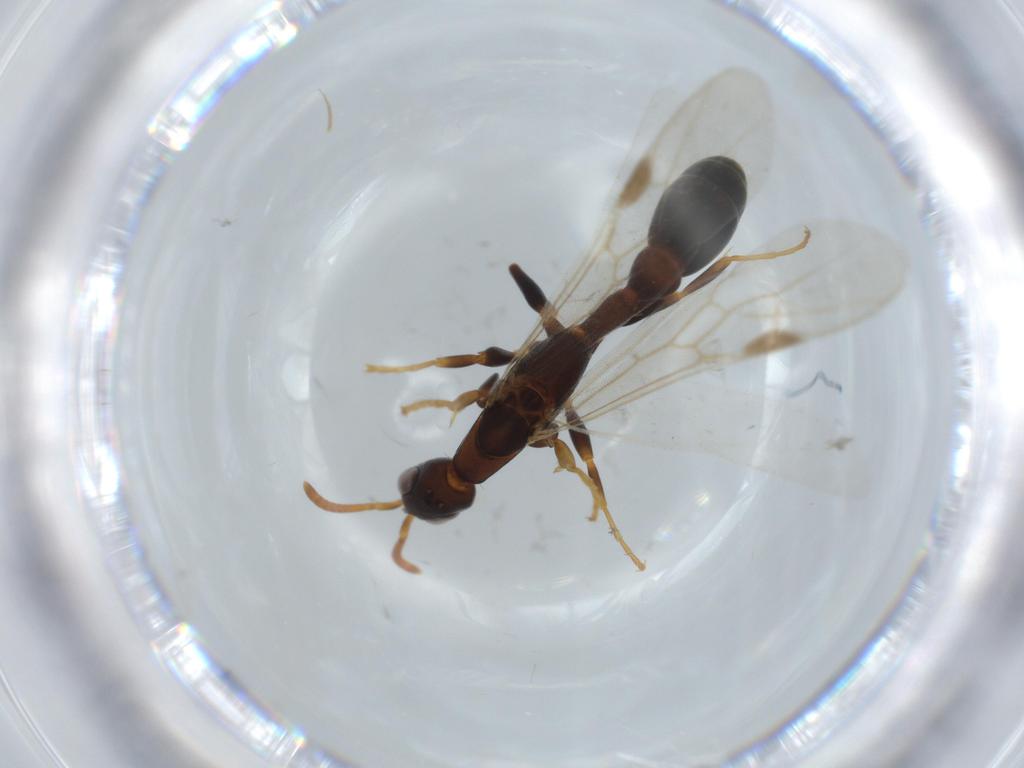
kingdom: Animalia
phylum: Arthropoda
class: Insecta
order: Hymenoptera
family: Formicidae
